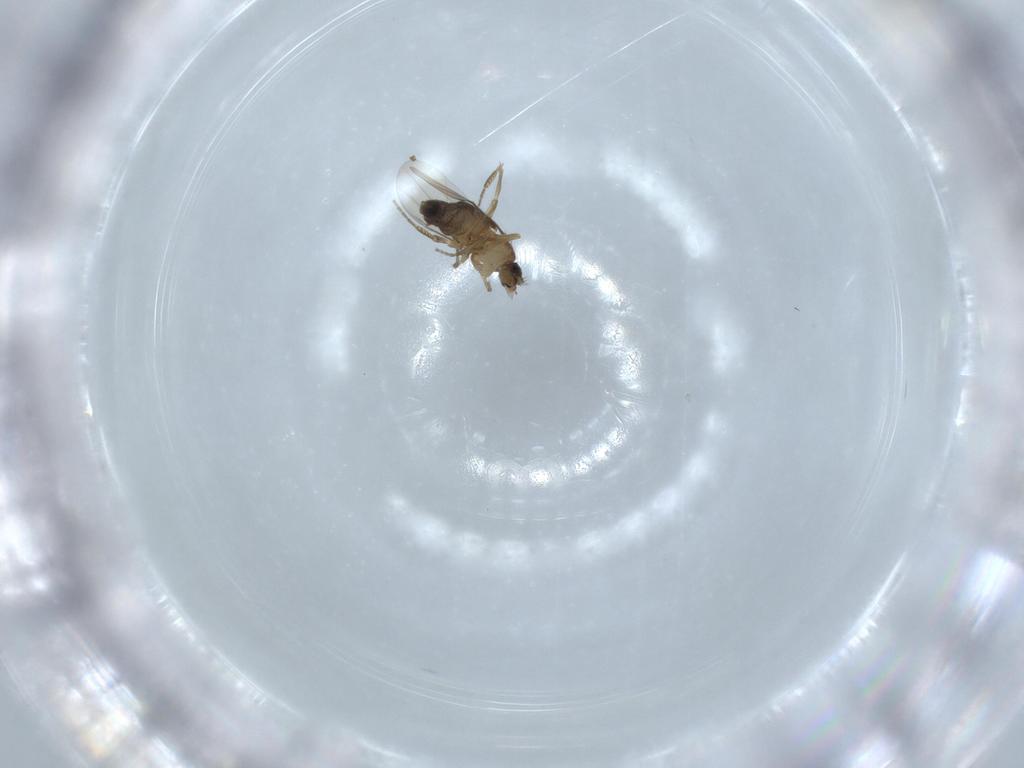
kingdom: Animalia
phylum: Arthropoda
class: Insecta
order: Diptera
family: Phoridae
